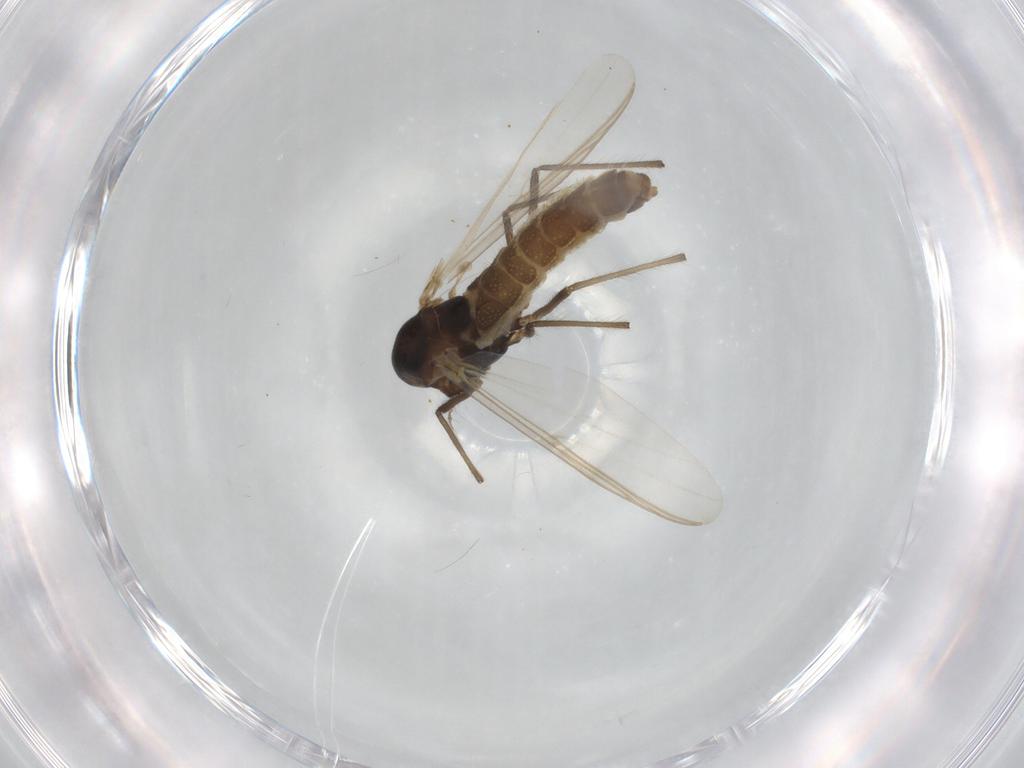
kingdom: Animalia
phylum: Arthropoda
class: Insecta
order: Diptera
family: Chironomidae
